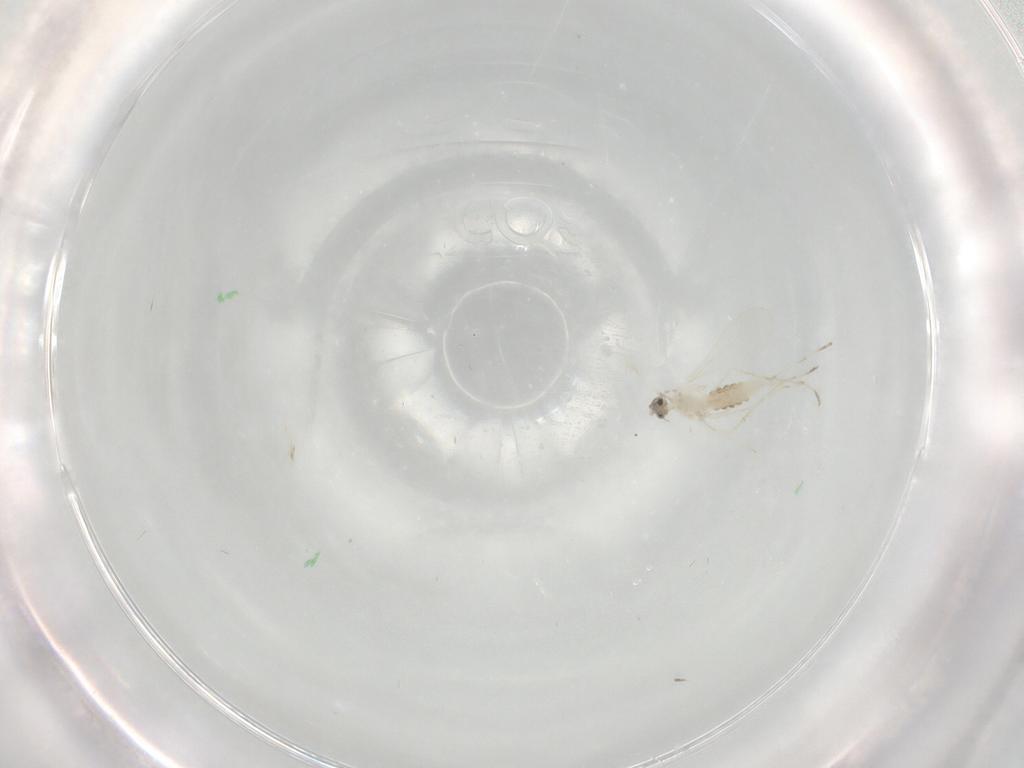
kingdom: Animalia
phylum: Arthropoda
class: Insecta
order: Diptera
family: Cecidomyiidae
